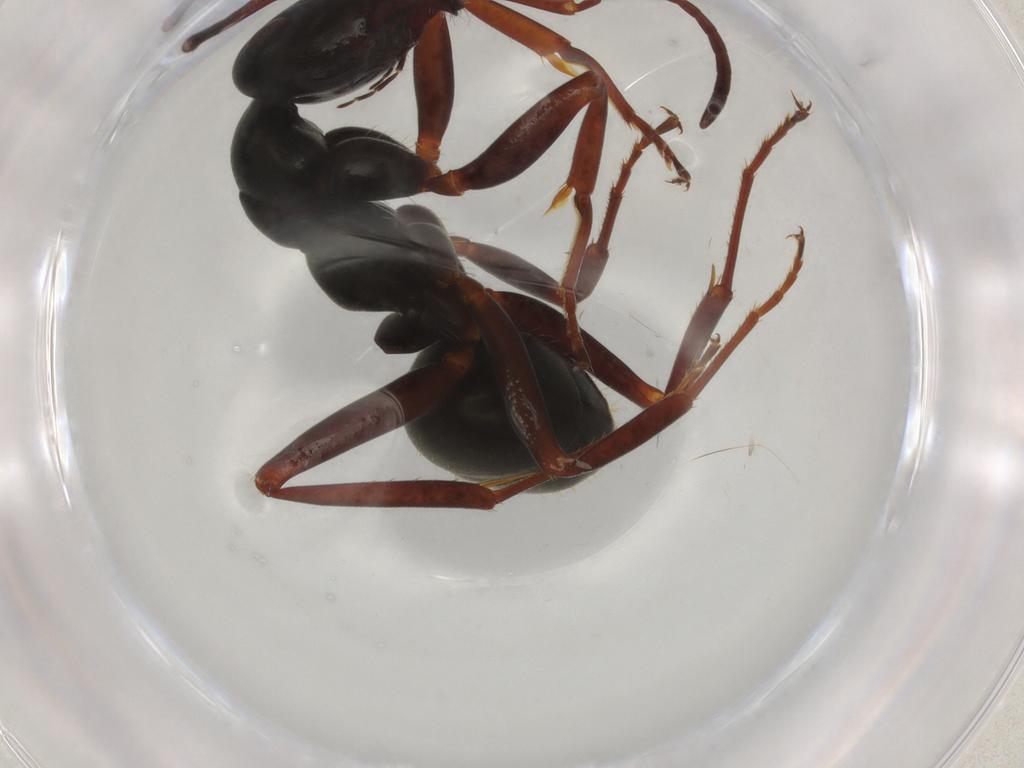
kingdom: Animalia
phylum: Arthropoda
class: Insecta
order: Hymenoptera
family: Formicidae
